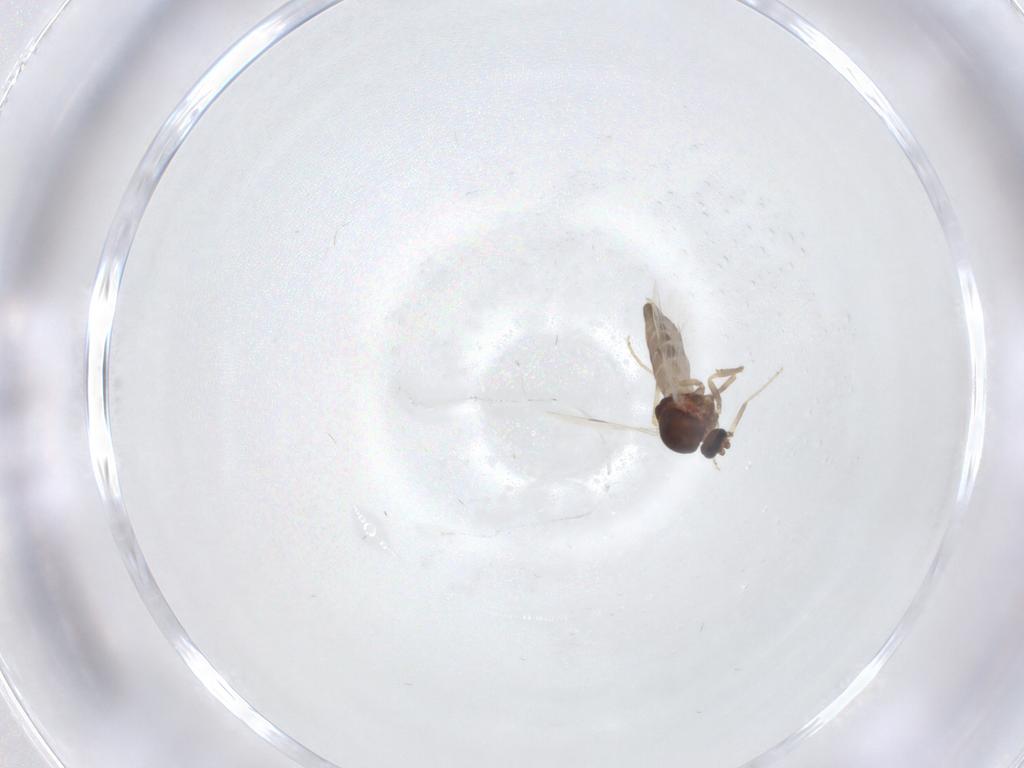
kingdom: Animalia
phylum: Arthropoda
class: Insecta
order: Diptera
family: Ceratopogonidae
